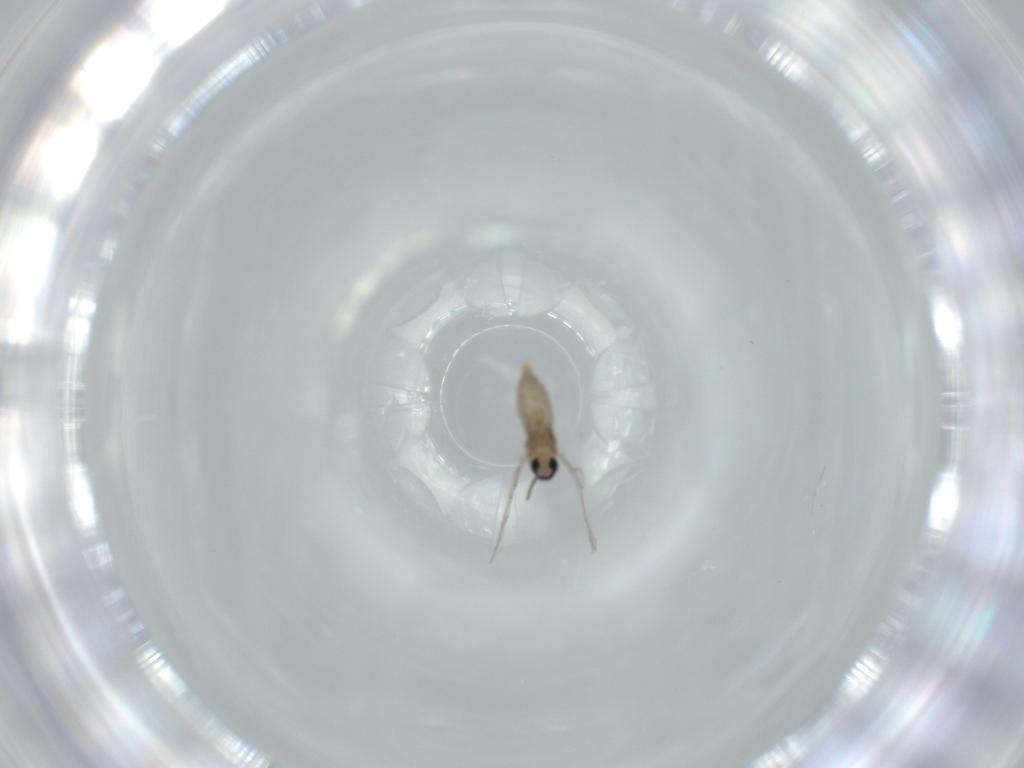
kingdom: Animalia
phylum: Arthropoda
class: Insecta
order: Diptera
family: Cecidomyiidae
